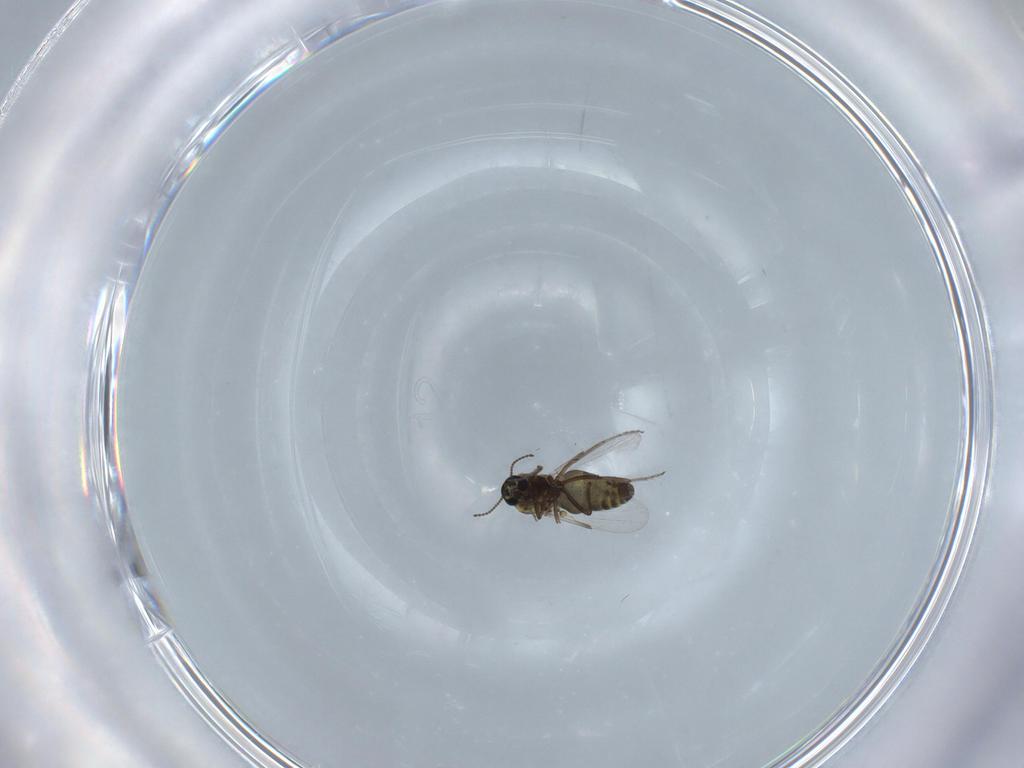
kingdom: Animalia
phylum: Arthropoda
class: Insecta
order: Diptera
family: Ceratopogonidae
